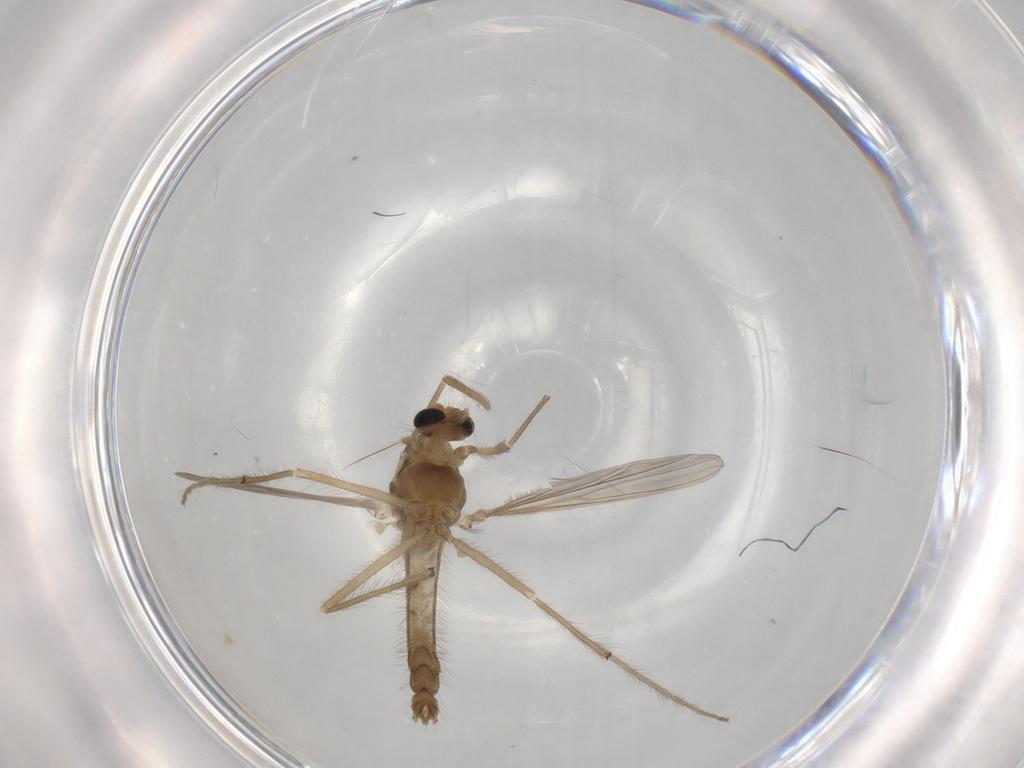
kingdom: Animalia
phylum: Arthropoda
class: Insecta
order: Diptera
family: Chironomidae
